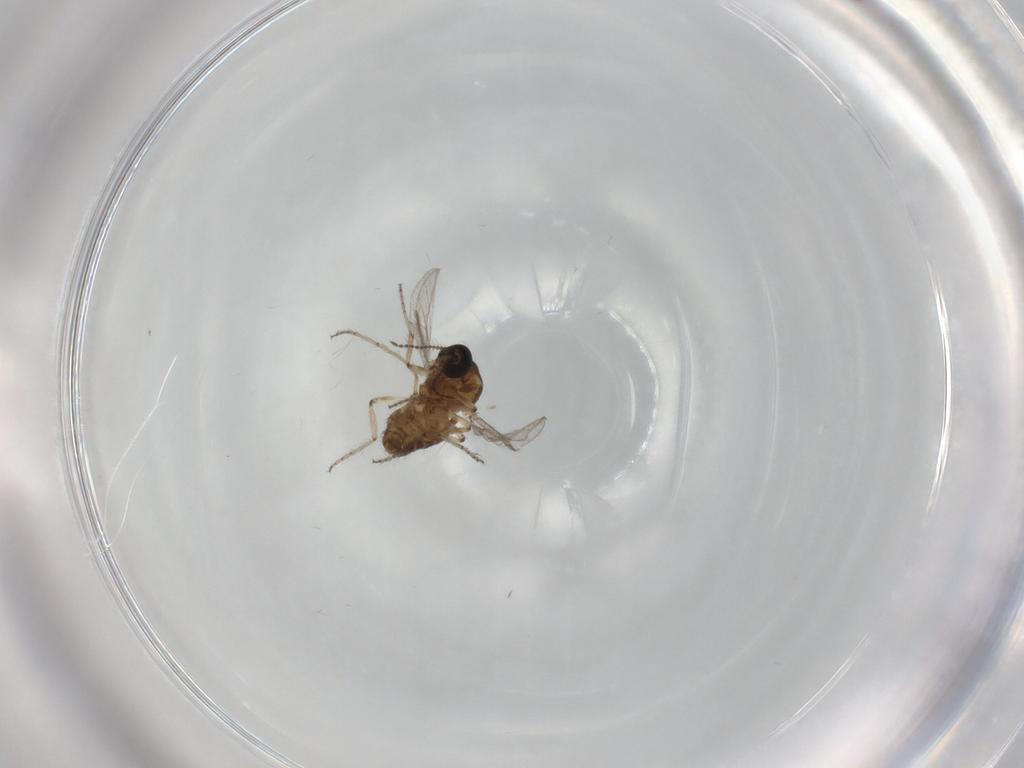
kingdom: Animalia
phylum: Arthropoda
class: Insecta
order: Diptera
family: Ceratopogonidae
